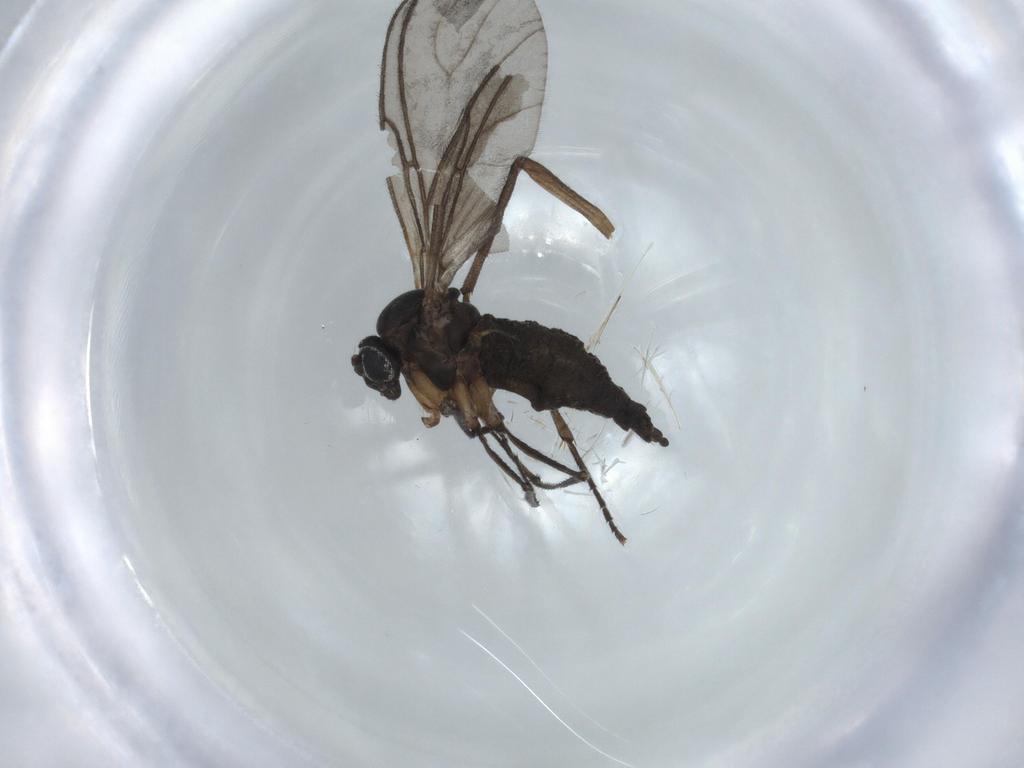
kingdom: Animalia
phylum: Arthropoda
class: Insecta
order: Diptera
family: Sciaridae
